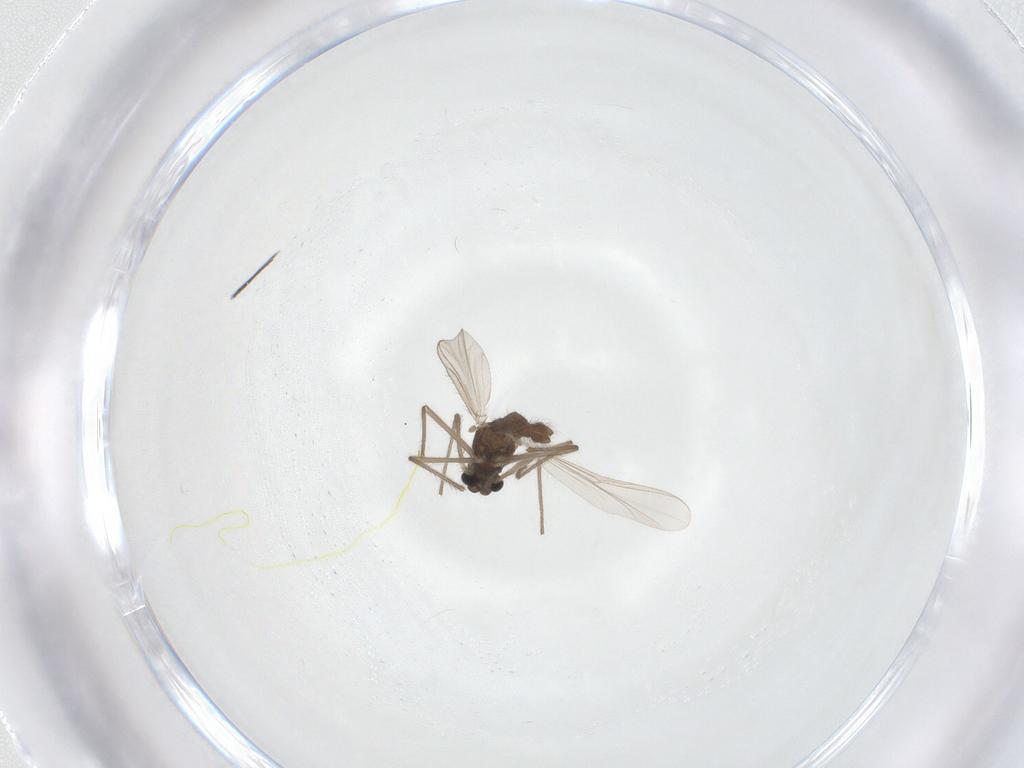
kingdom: Animalia
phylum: Arthropoda
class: Insecta
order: Diptera
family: Chironomidae
